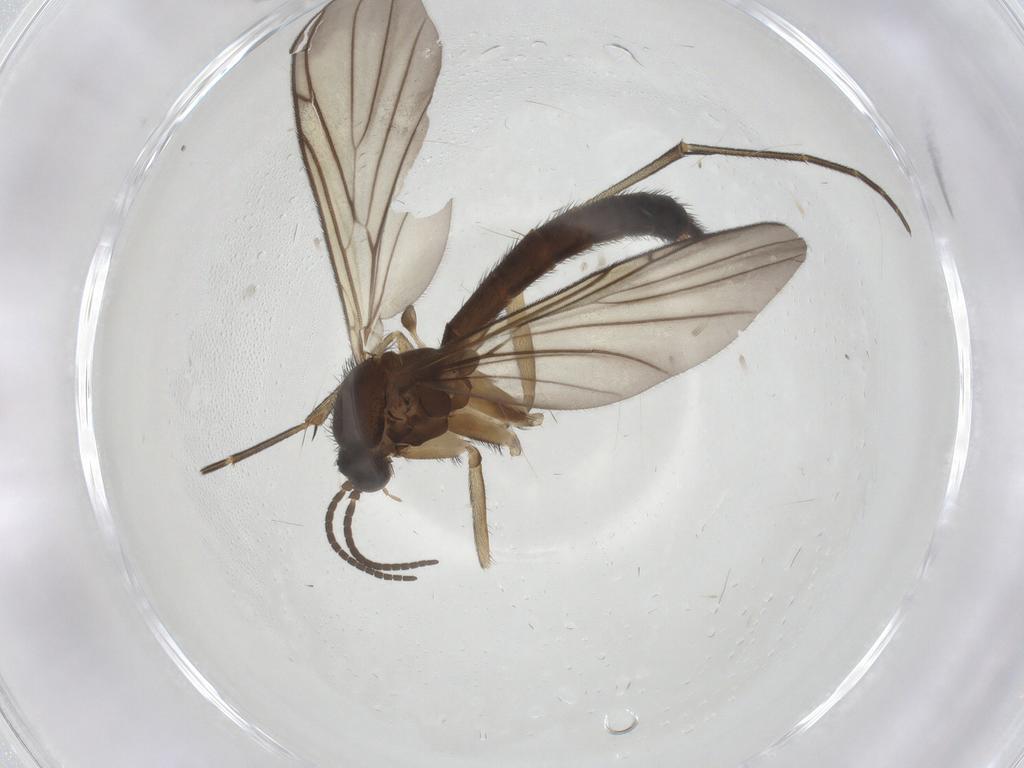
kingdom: Animalia
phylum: Arthropoda
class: Insecta
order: Diptera
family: Keroplatidae
